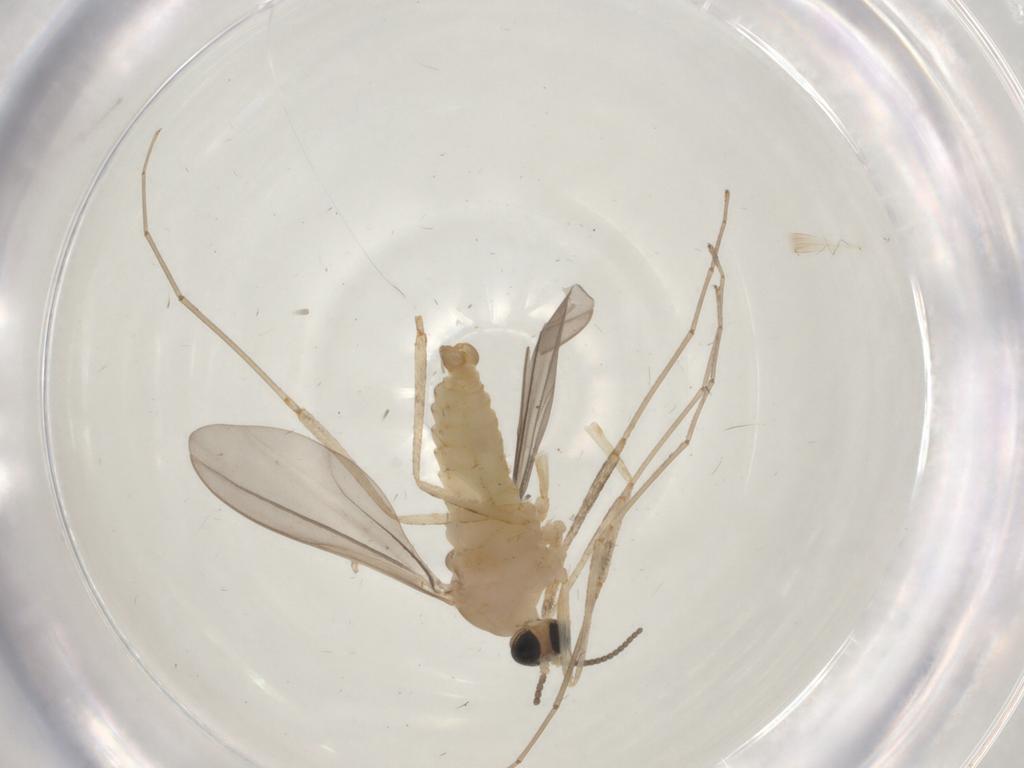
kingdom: Animalia
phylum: Arthropoda
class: Insecta
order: Diptera
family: Cecidomyiidae
